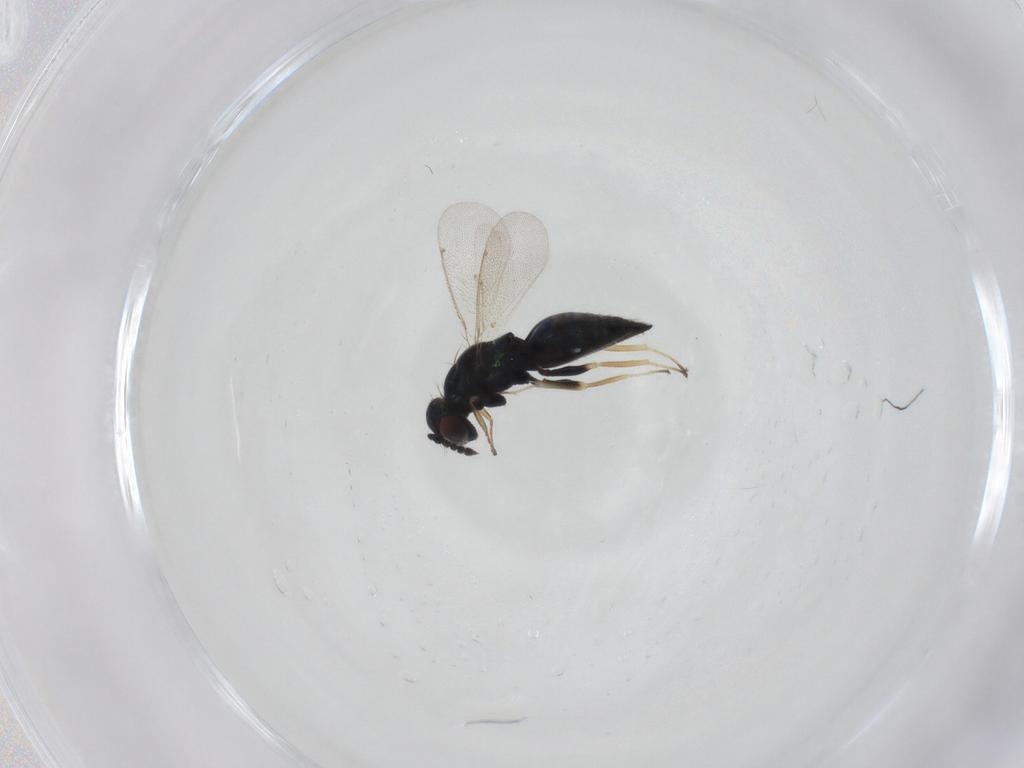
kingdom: Animalia
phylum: Arthropoda
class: Insecta
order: Hymenoptera
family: Eulophidae
